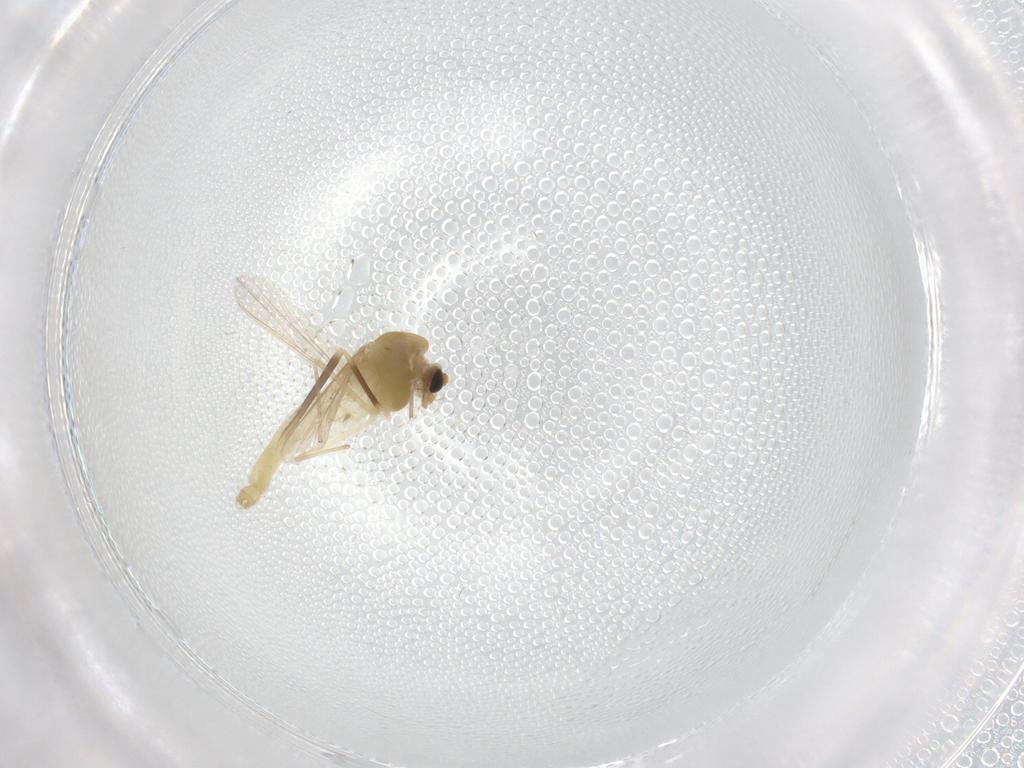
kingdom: Animalia
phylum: Arthropoda
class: Insecta
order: Diptera
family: Chironomidae
